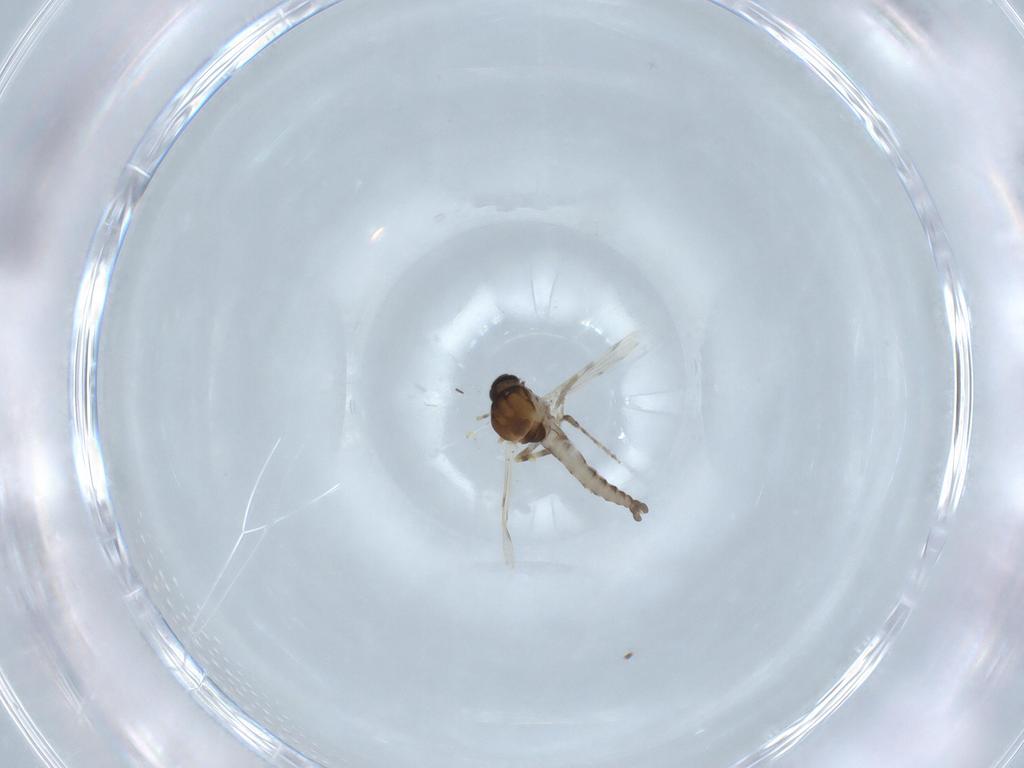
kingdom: Animalia
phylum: Arthropoda
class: Insecta
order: Diptera
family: Ceratopogonidae
